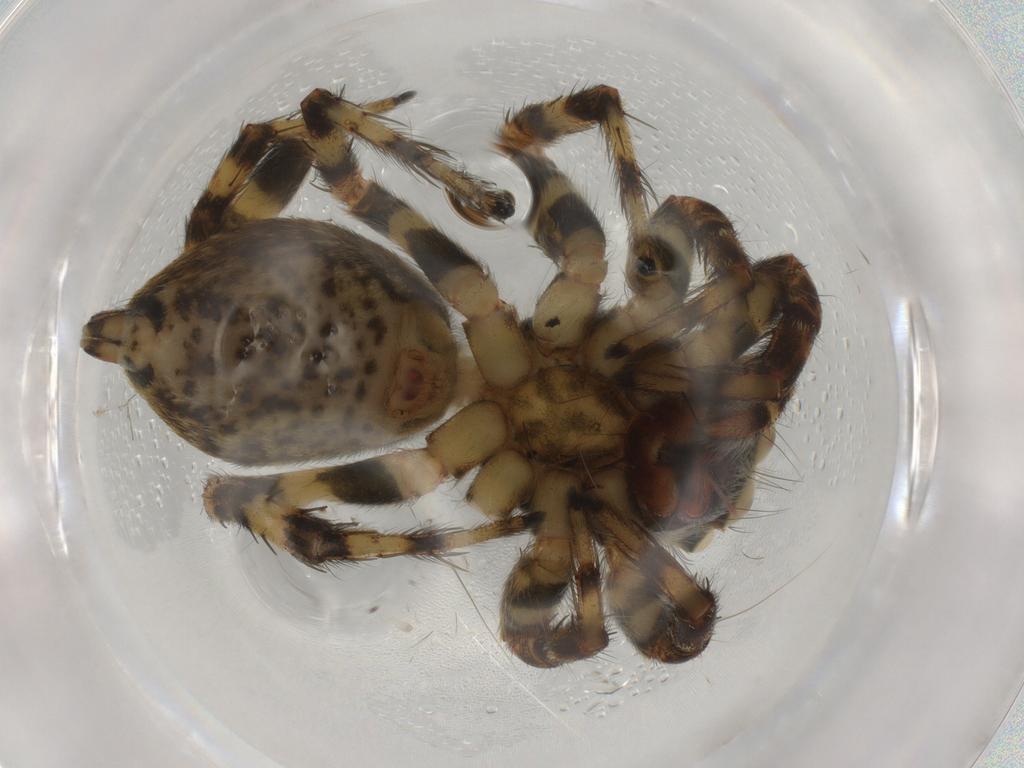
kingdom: Animalia
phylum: Arthropoda
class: Arachnida
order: Araneae
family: Salticidae
